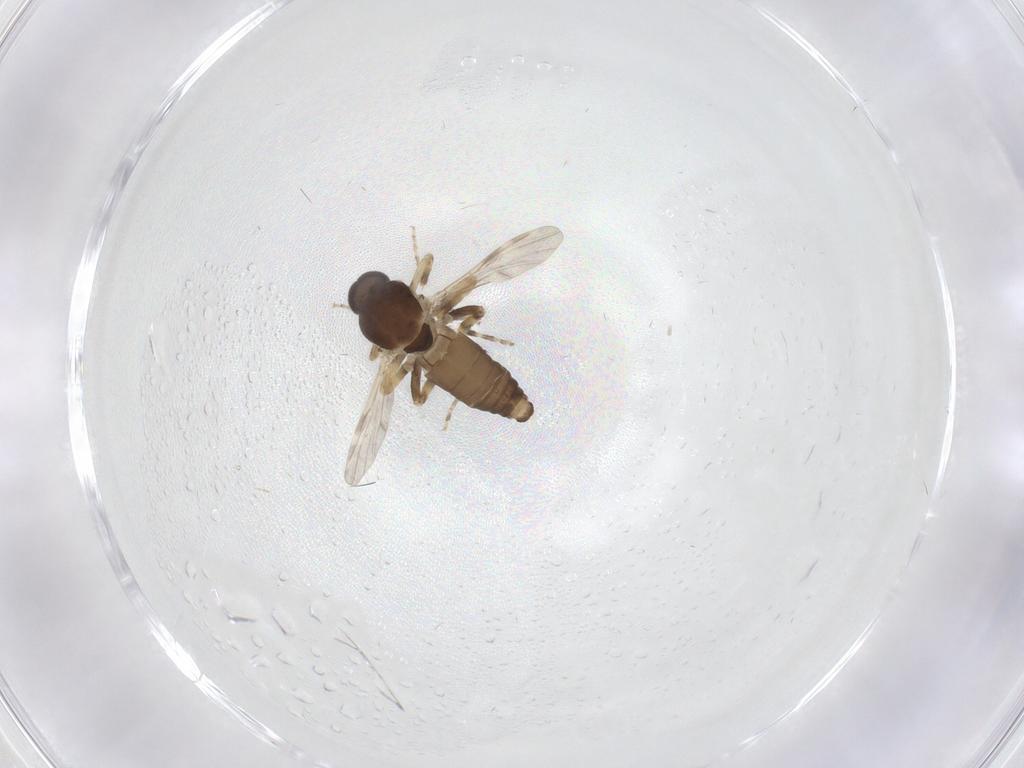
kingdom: Animalia
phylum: Arthropoda
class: Insecta
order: Diptera
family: Ceratopogonidae
